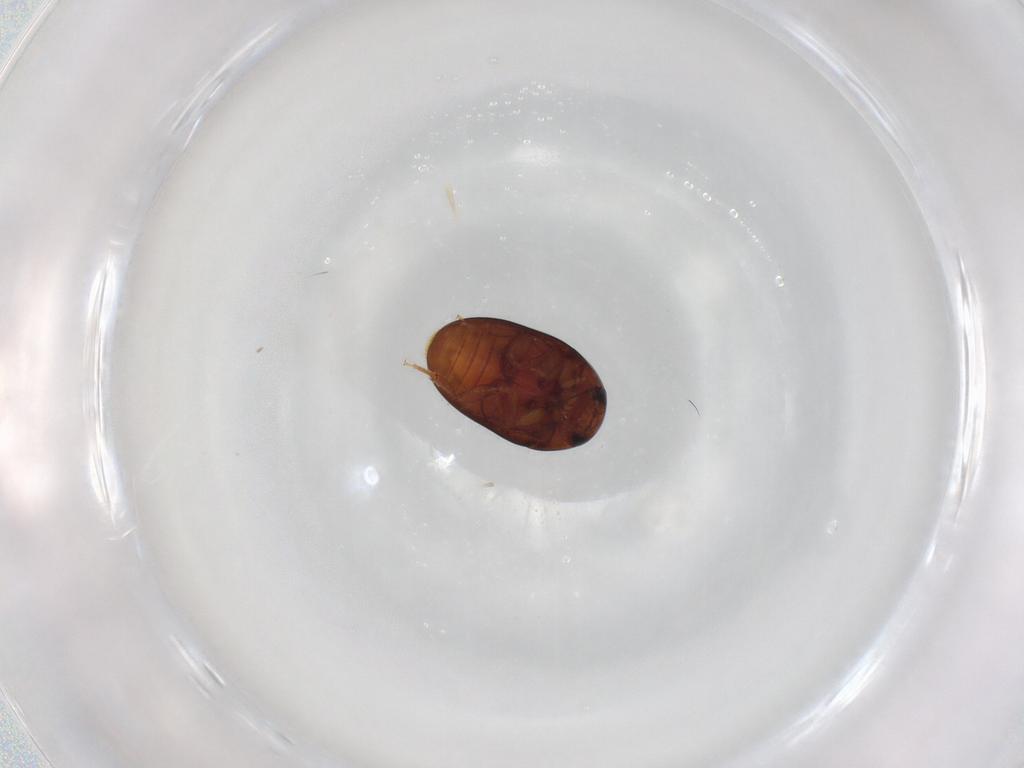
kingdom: Animalia
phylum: Arthropoda
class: Insecta
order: Coleoptera
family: Phalacridae
